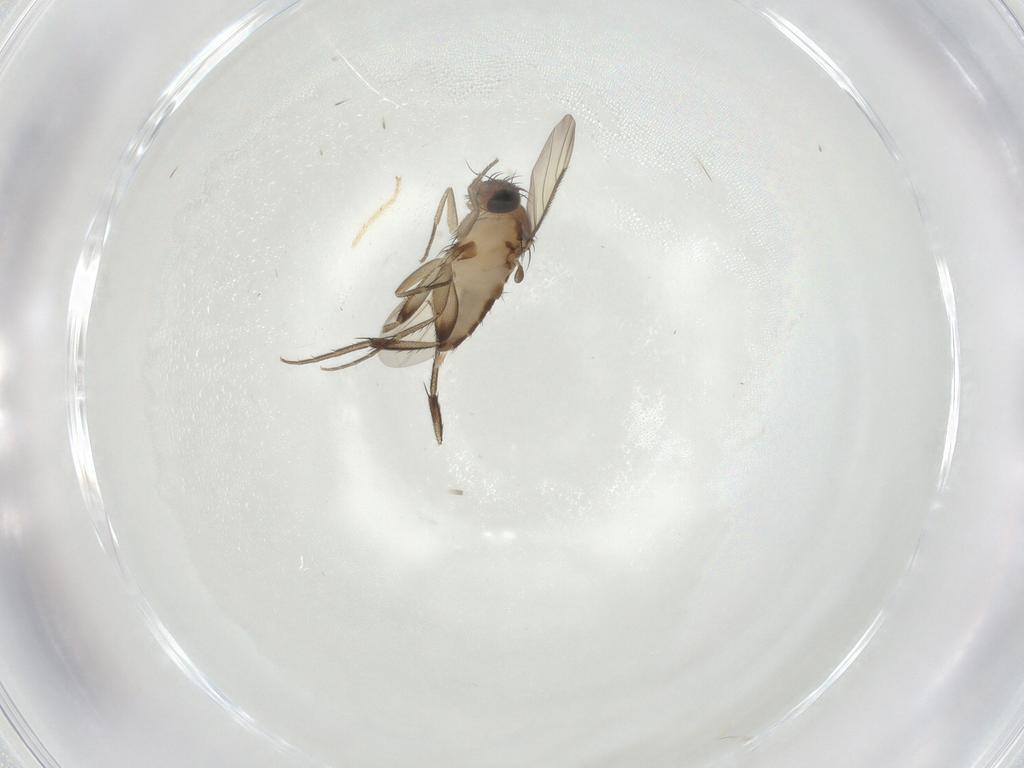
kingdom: Animalia
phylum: Arthropoda
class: Insecta
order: Diptera
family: Phoridae
